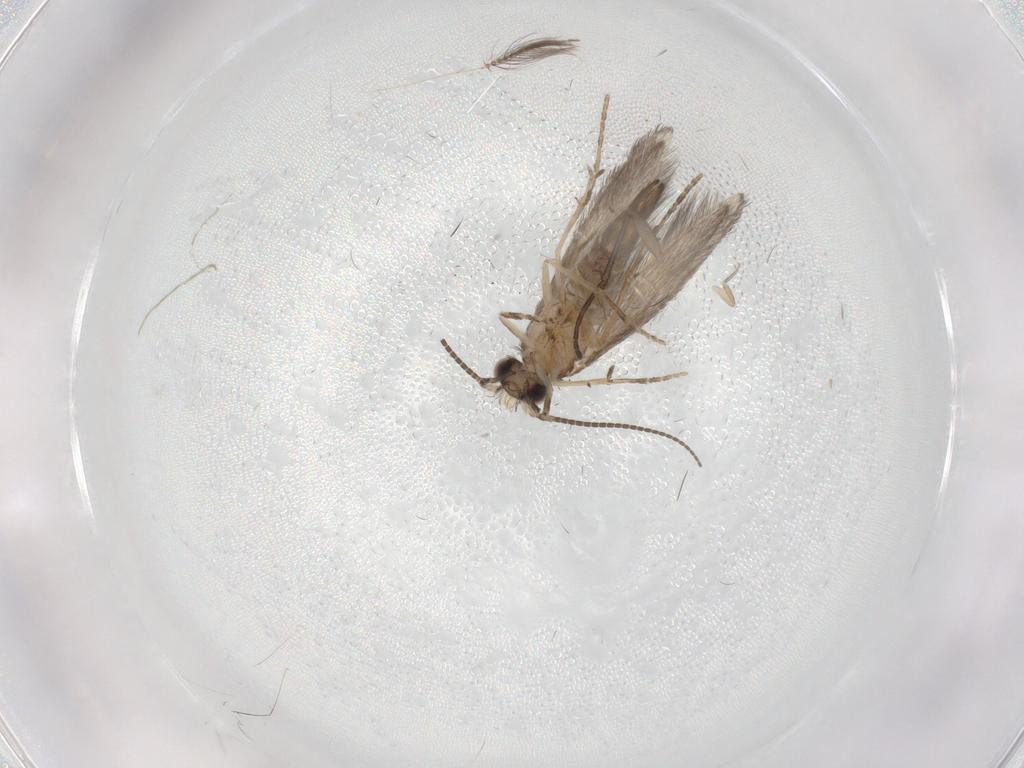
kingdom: Animalia
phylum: Arthropoda
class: Insecta
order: Trichoptera
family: Hydroptilidae
